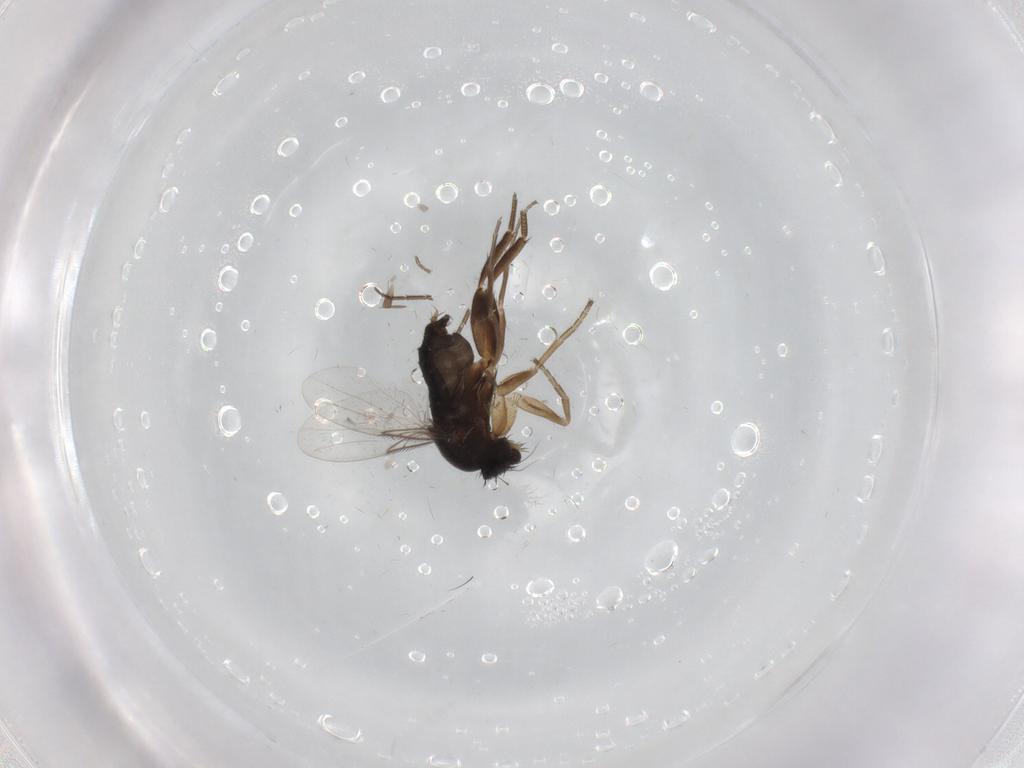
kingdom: Animalia
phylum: Arthropoda
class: Insecta
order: Diptera
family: Phoridae
